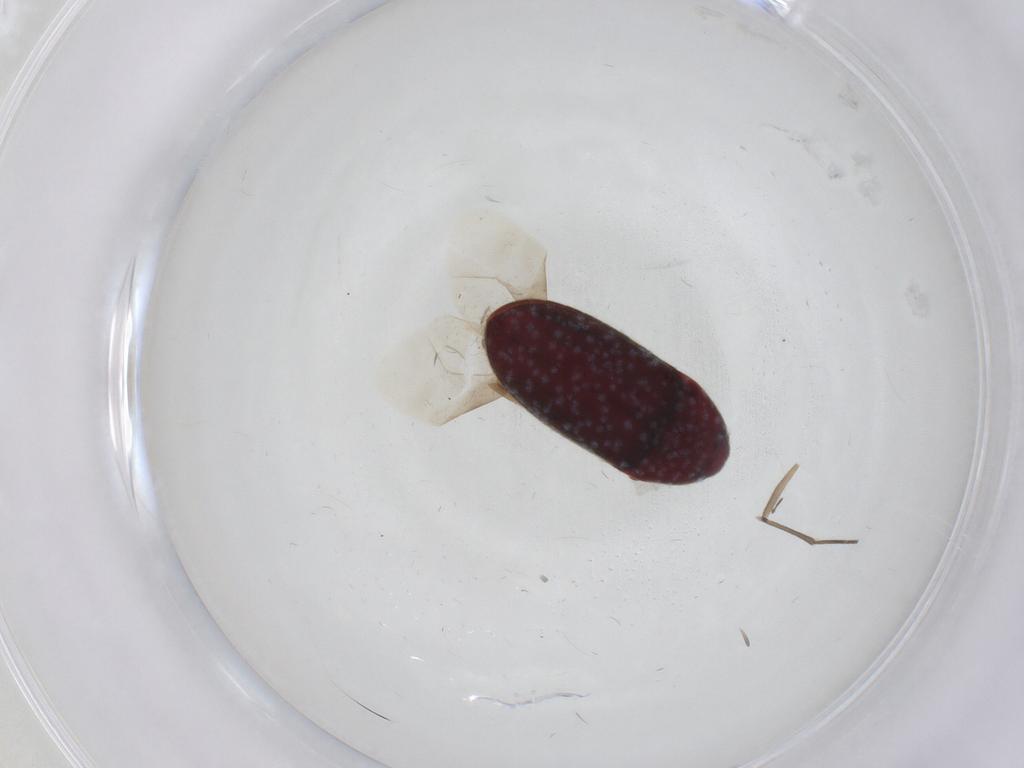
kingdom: Animalia
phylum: Arthropoda
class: Insecta
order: Coleoptera
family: Throscidae
